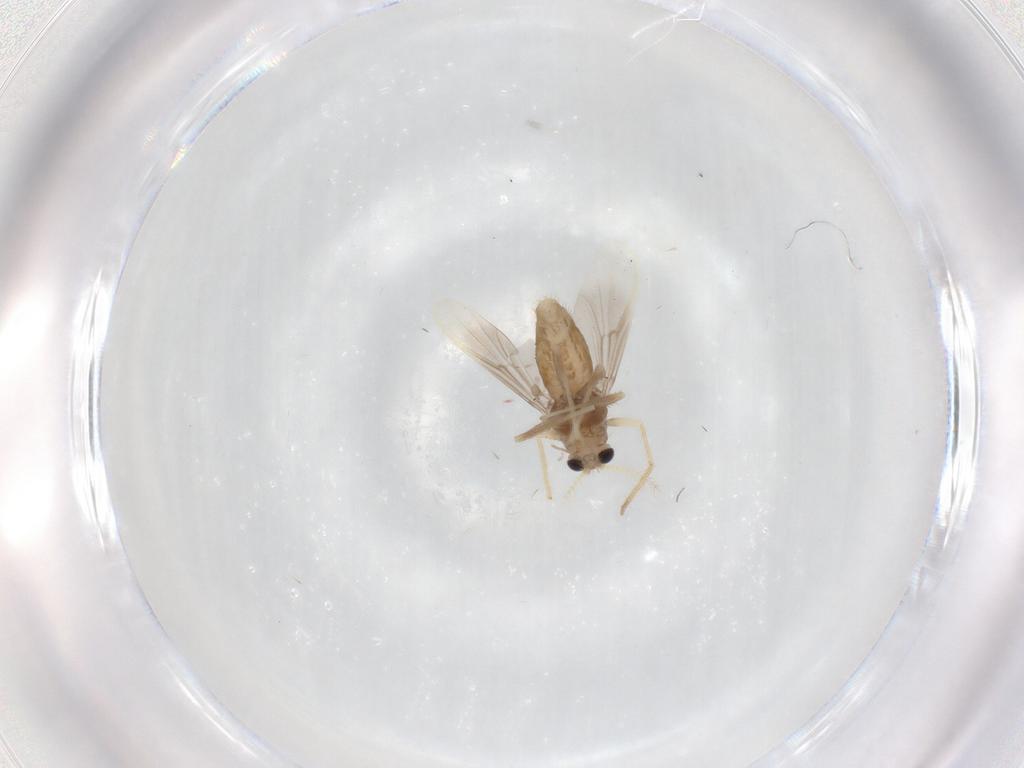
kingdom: Animalia
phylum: Arthropoda
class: Insecta
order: Diptera
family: Chironomidae
